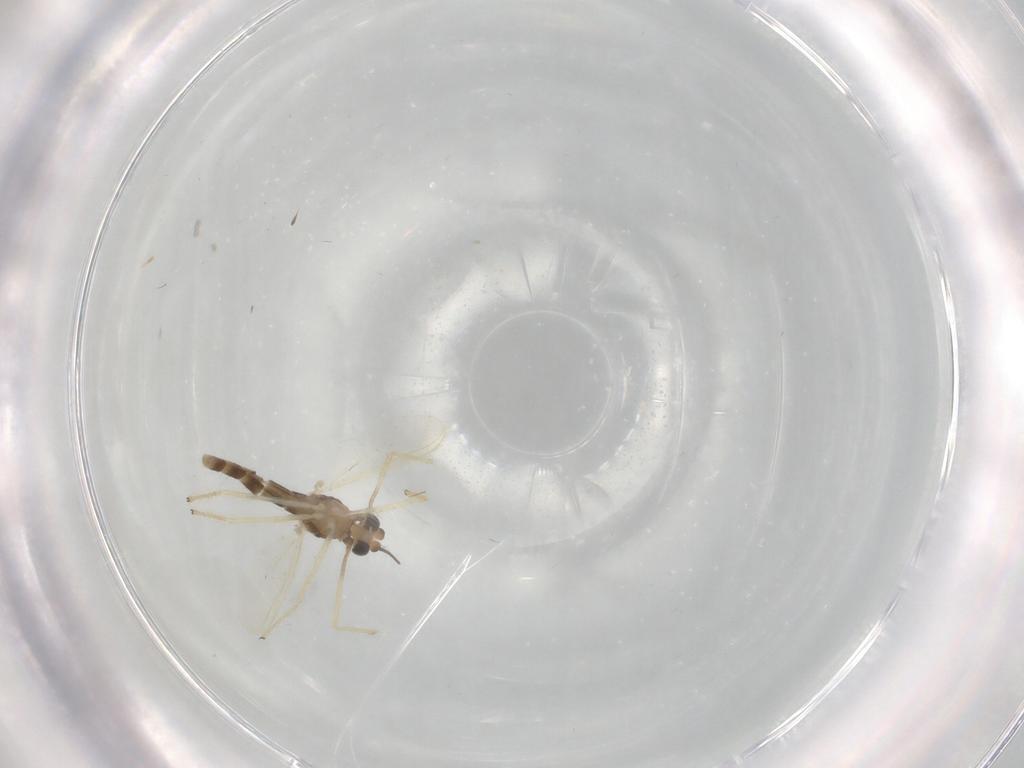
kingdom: Animalia
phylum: Arthropoda
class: Insecta
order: Diptera
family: Chironomidae
